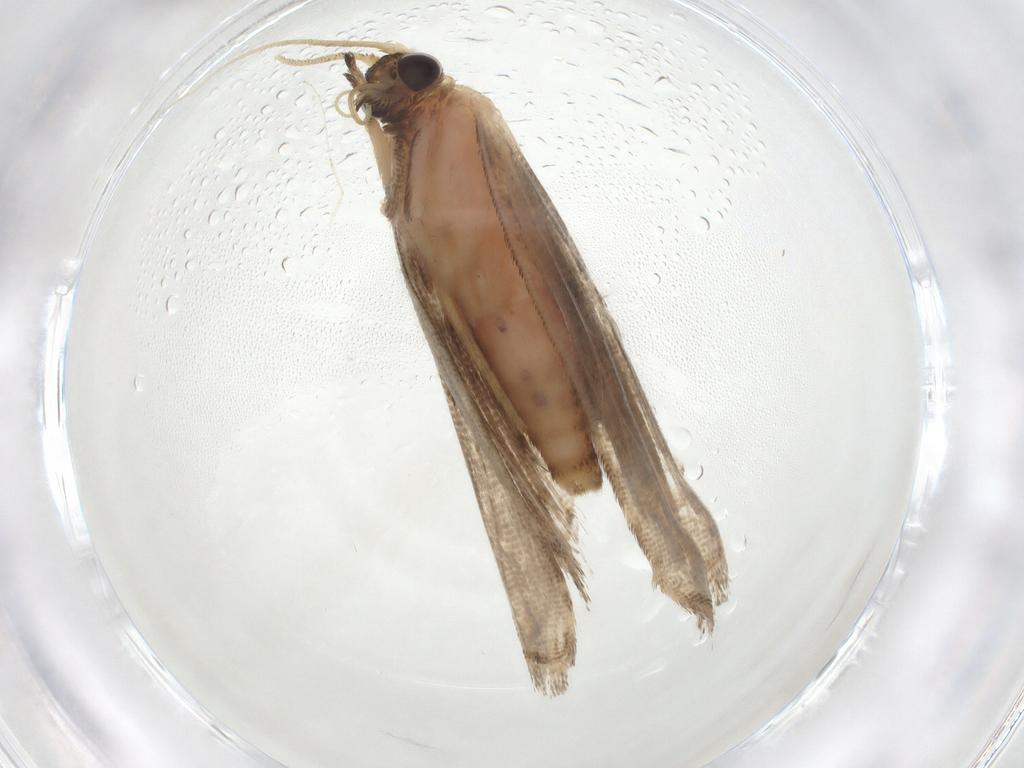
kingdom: Animalia
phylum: Arthropoda
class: Insecta
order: Lepidoptera
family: Erebidae
